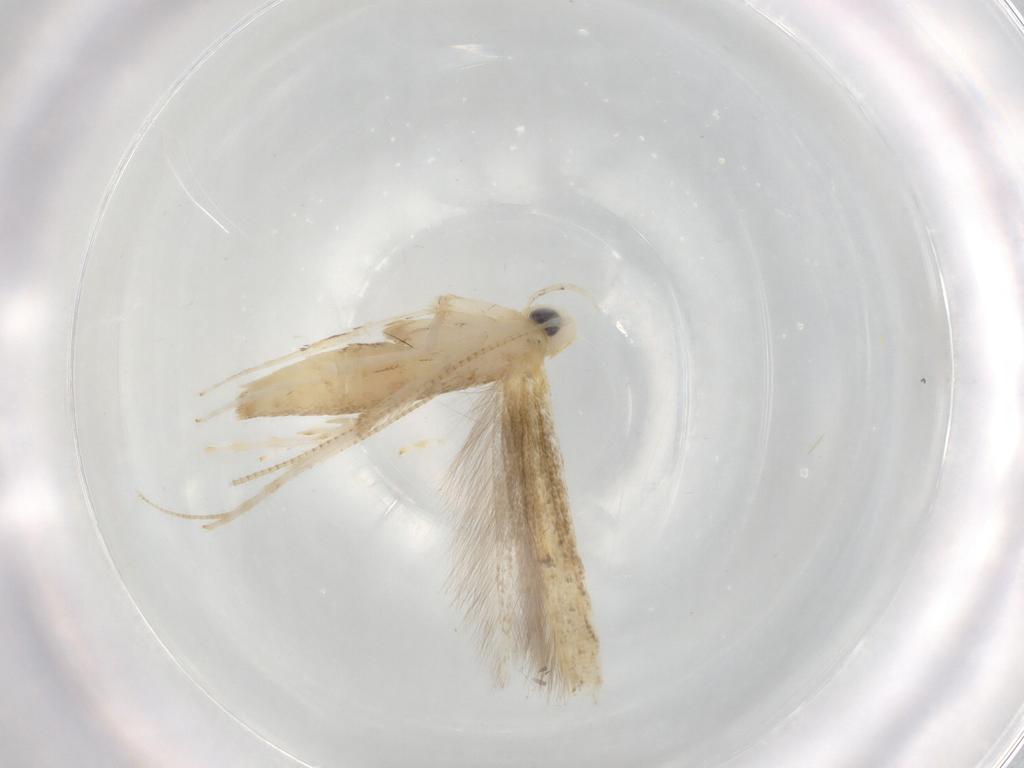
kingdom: Animalia
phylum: Arthropoda
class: Insecta
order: Lepidoptera
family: Gracillariidae
